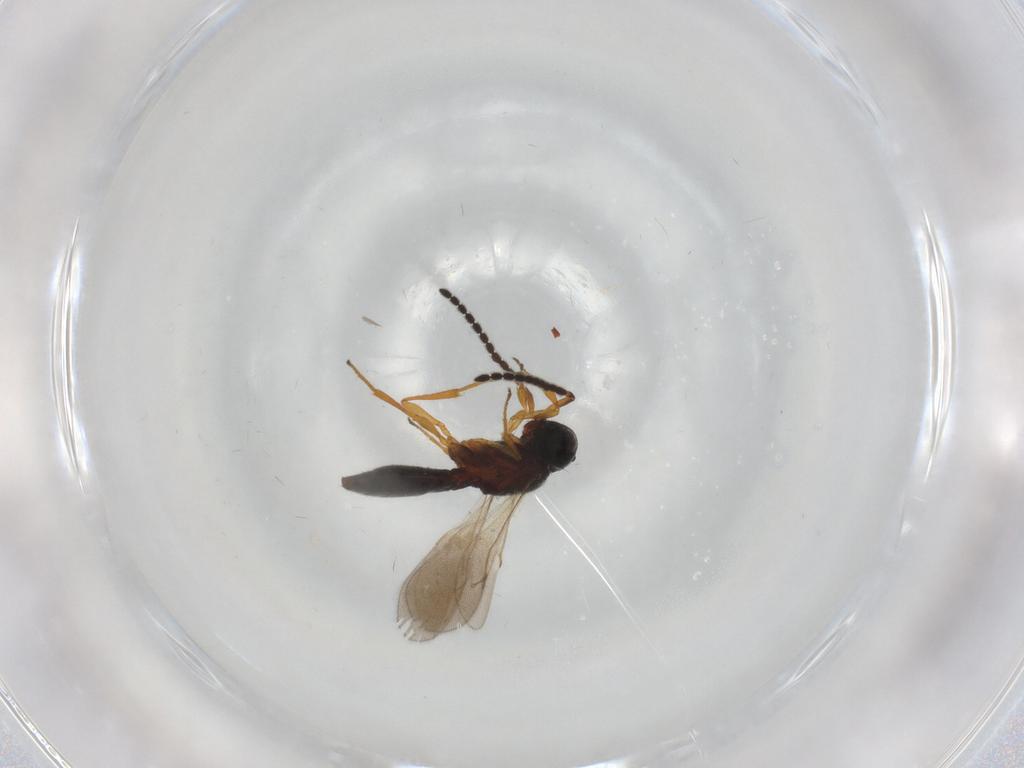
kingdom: Animalia
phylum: Arthropoda
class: Insecta
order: Hymenoptera
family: Scelionidae
